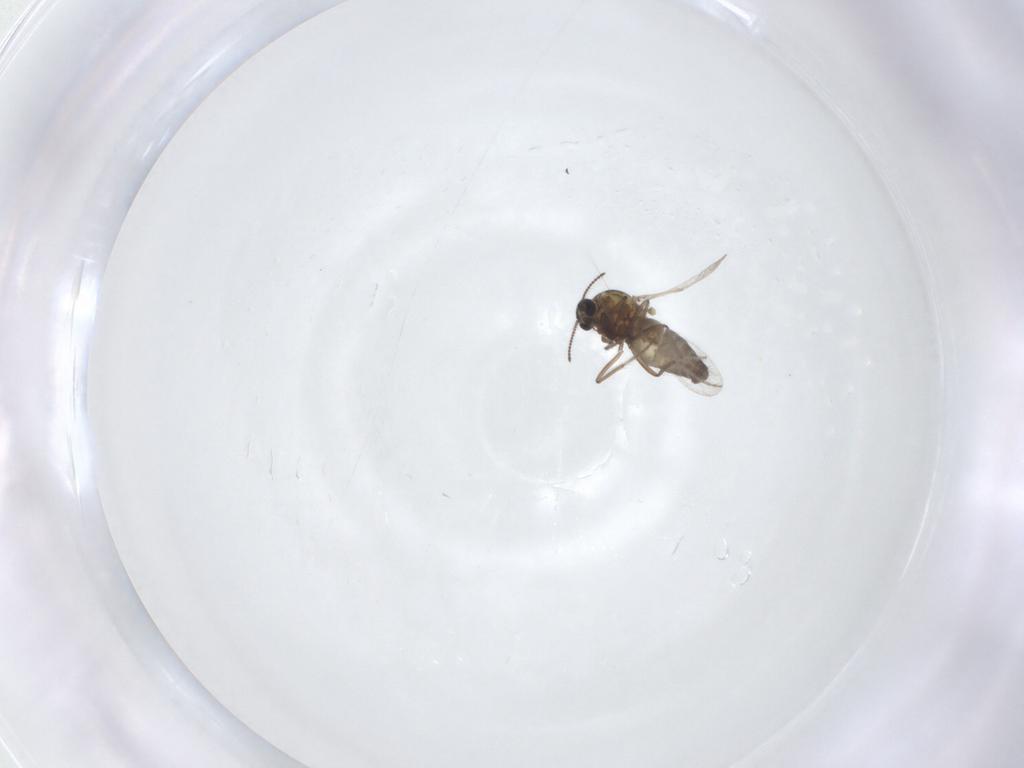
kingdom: Animalia
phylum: Arthropoda
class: Insecta
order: Diptera
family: Ceratopogonidae
